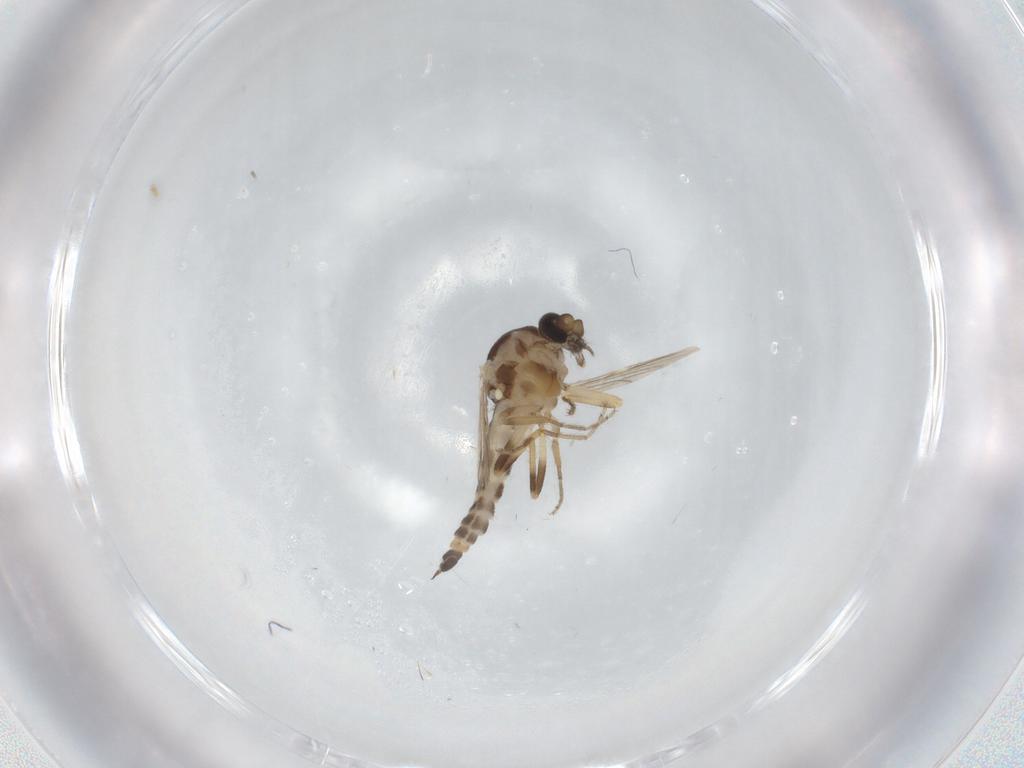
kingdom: Animalia
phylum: Arthropoda
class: Insecta
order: Diptera
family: Ceratopogonidae
